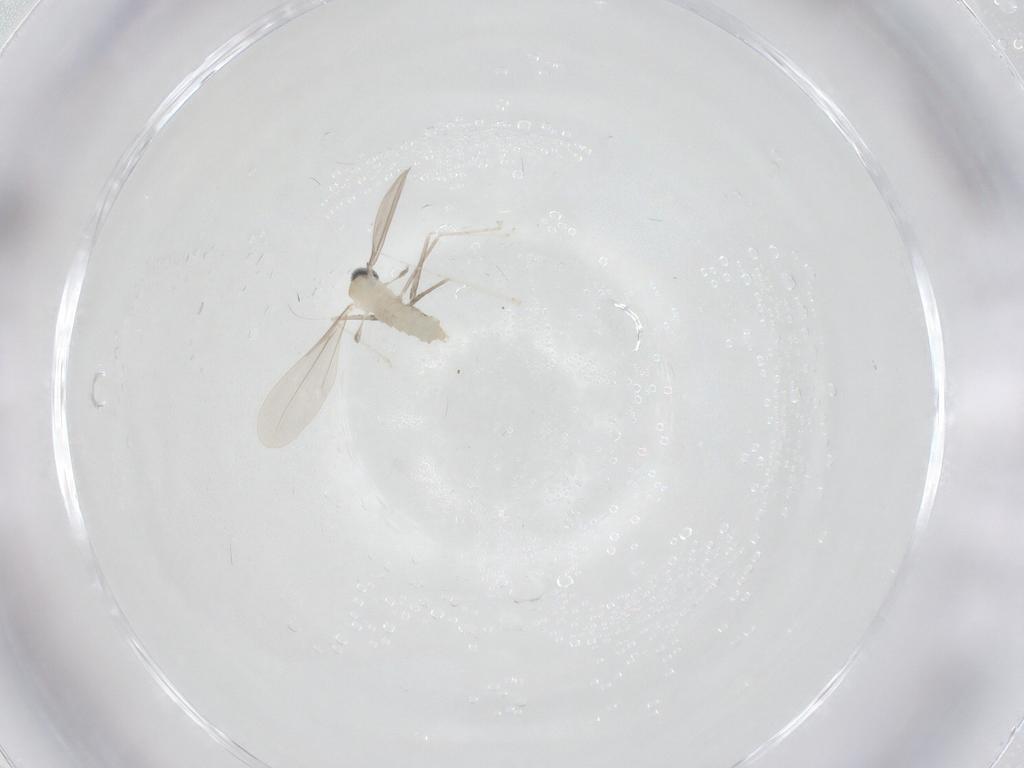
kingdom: Animalia
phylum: Arthropoda
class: Insecta
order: Diptera
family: Cecidomyiidae
